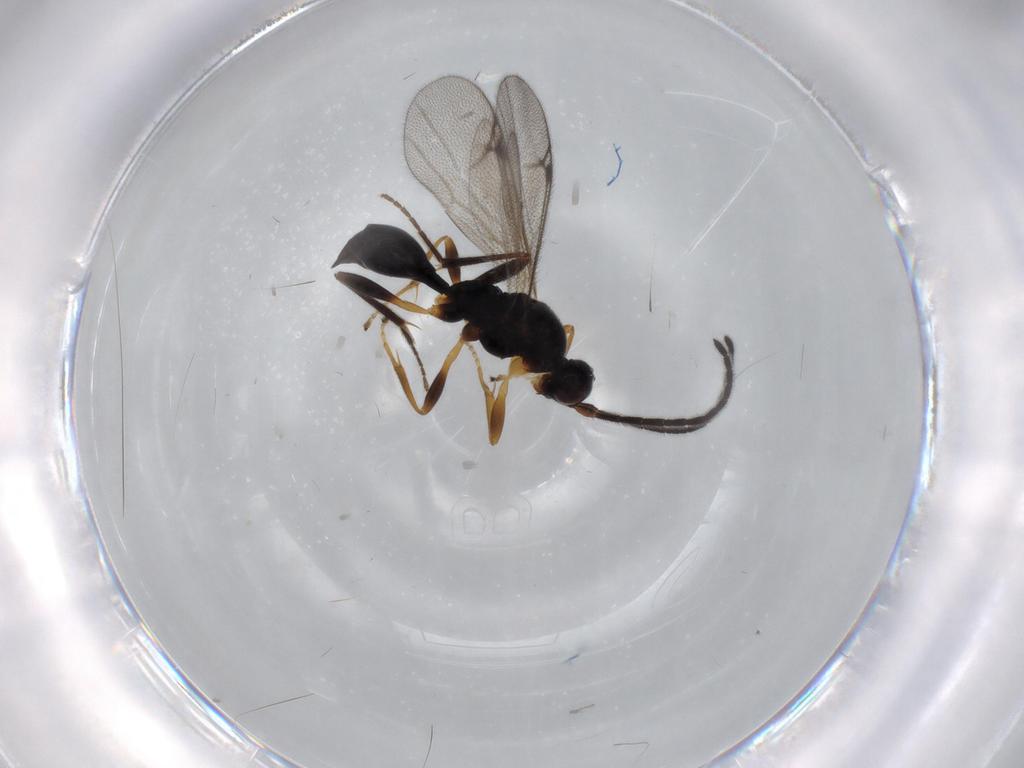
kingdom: Animalia
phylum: Arthropoda
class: Insecta
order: Hymenoptera
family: Proctotrupidae
